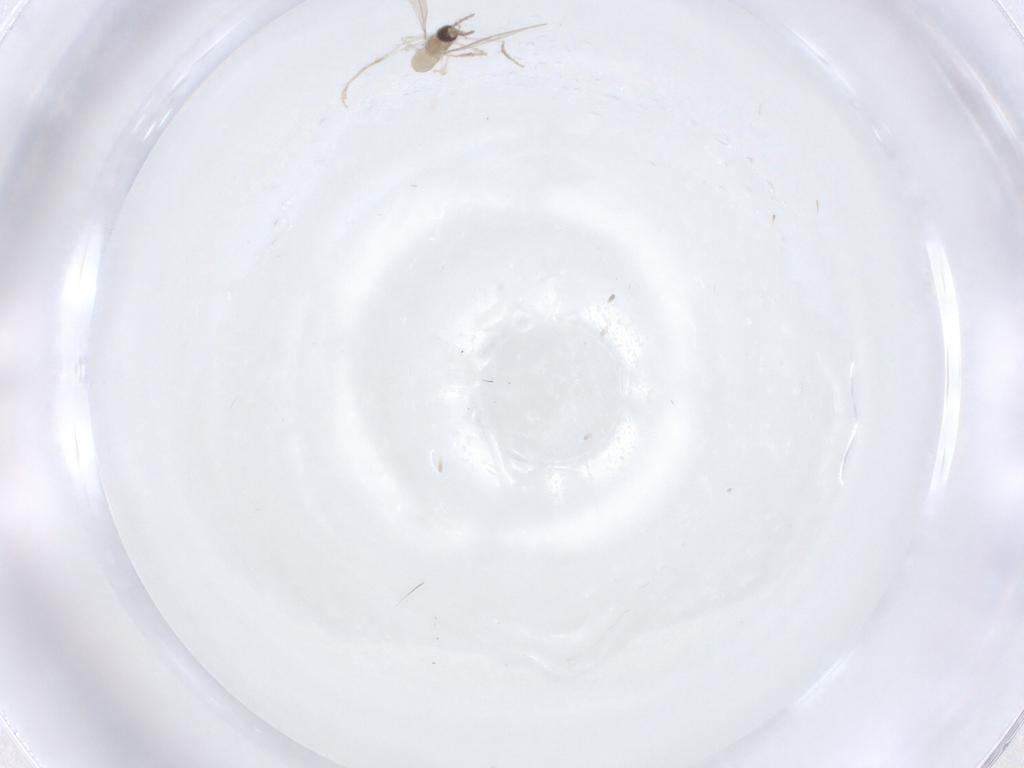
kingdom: Animalia
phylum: Arthropoda
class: Insecta
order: Diptera
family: Cecidomyiidae
